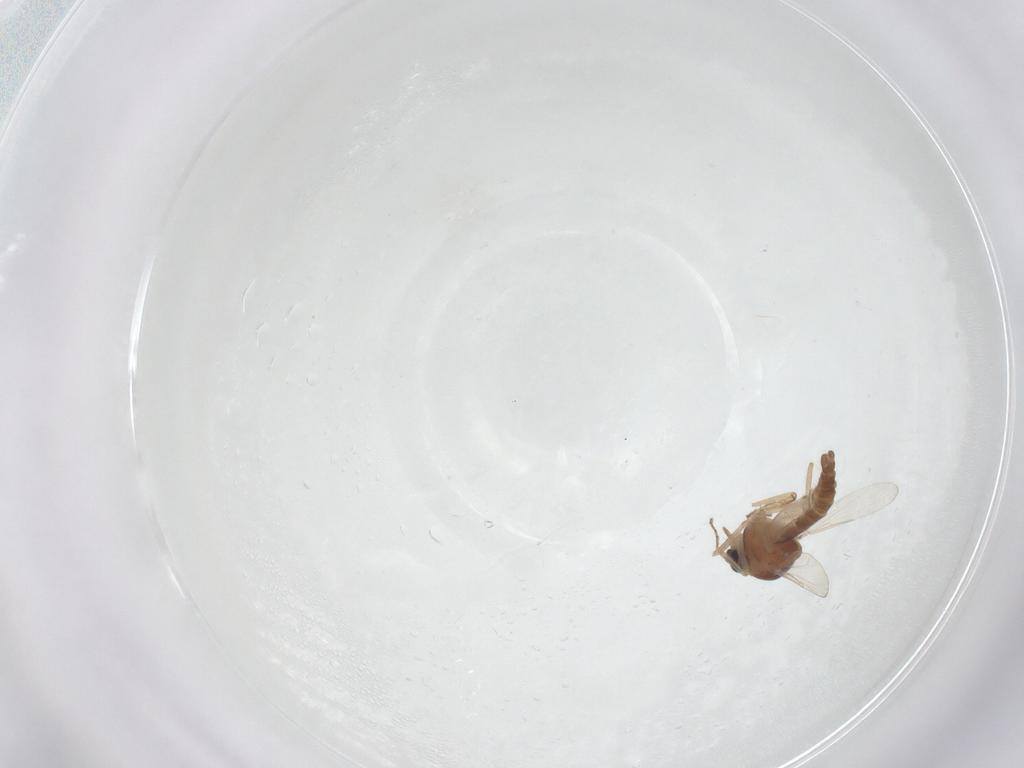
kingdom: Animalia
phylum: Arthropoda
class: Insecta
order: Diptera
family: Ceratopogonidae
